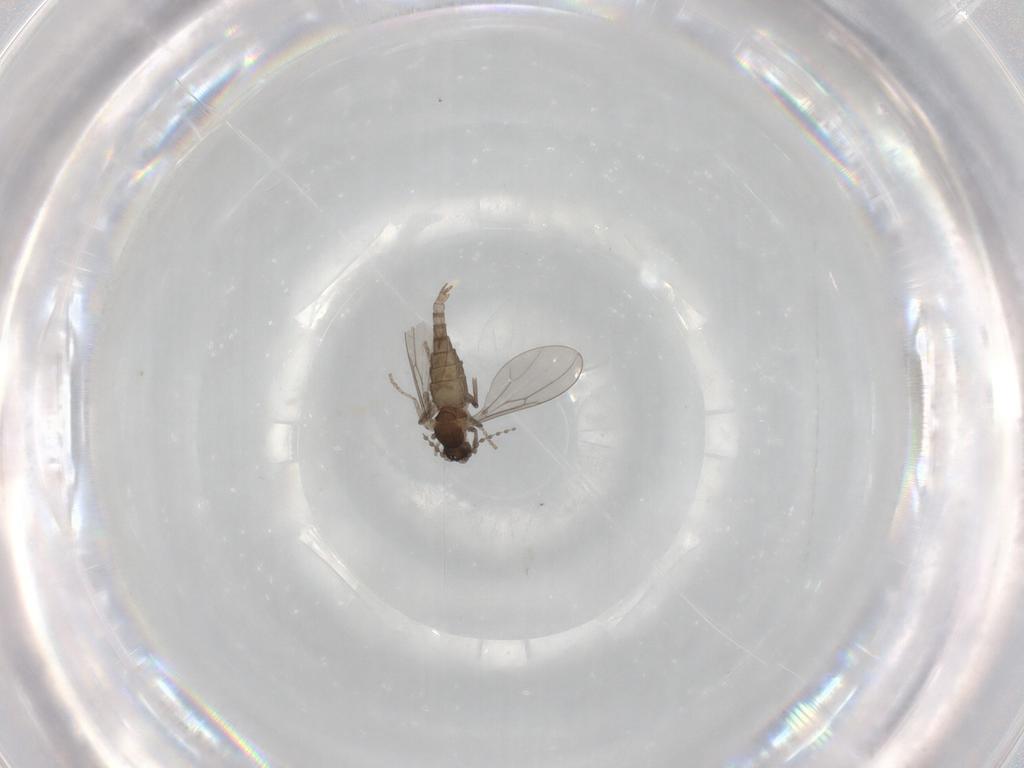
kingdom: Animalia
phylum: Arthropoda
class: Insecta
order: Diptera
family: Cecidomyiidae
